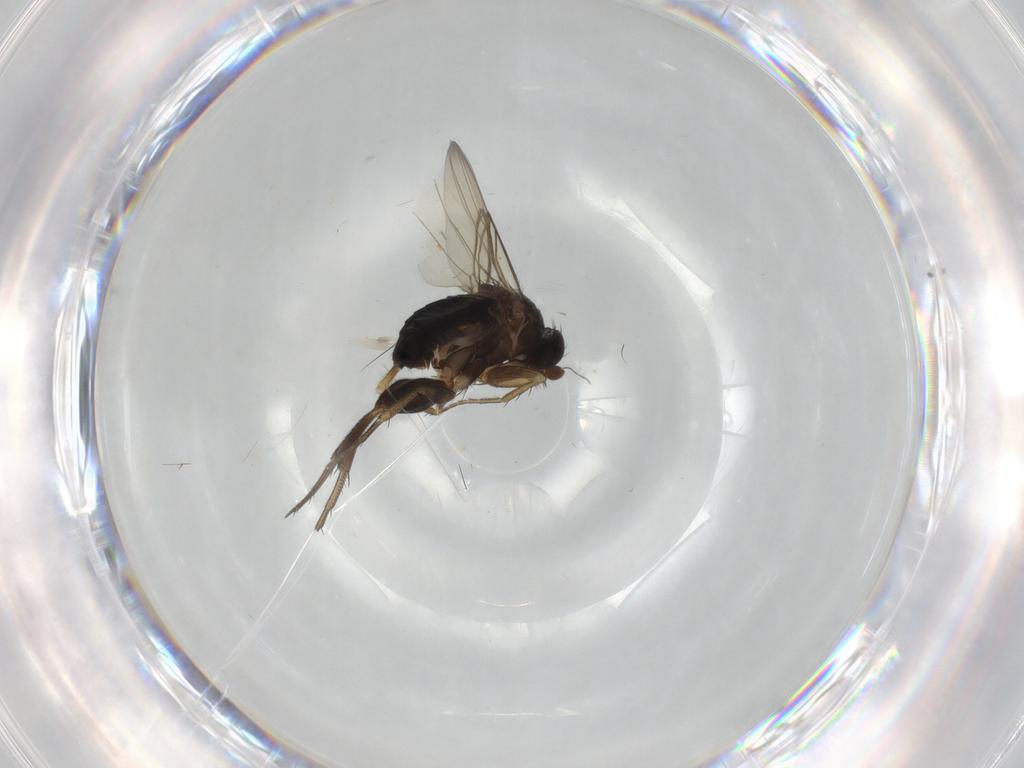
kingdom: Animalia
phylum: Arthropoda
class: Insecta
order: Diptera
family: Phoridae
